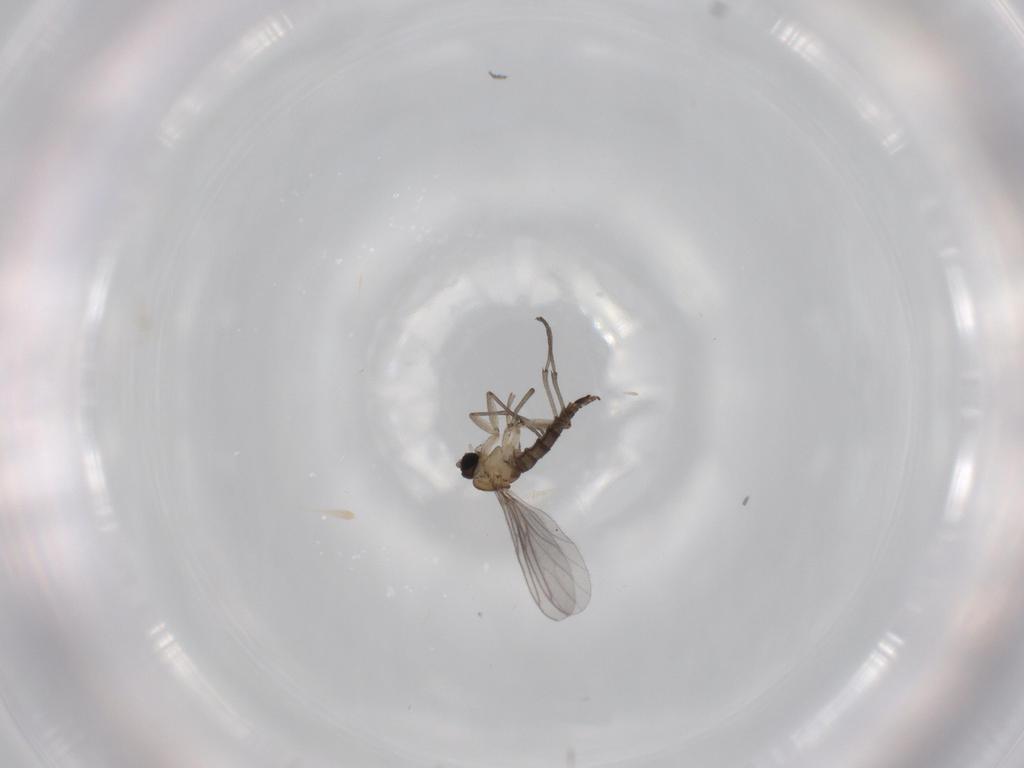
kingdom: Animalia
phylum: Arthropoda
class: Insecta
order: Diptera
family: Sciaridae
